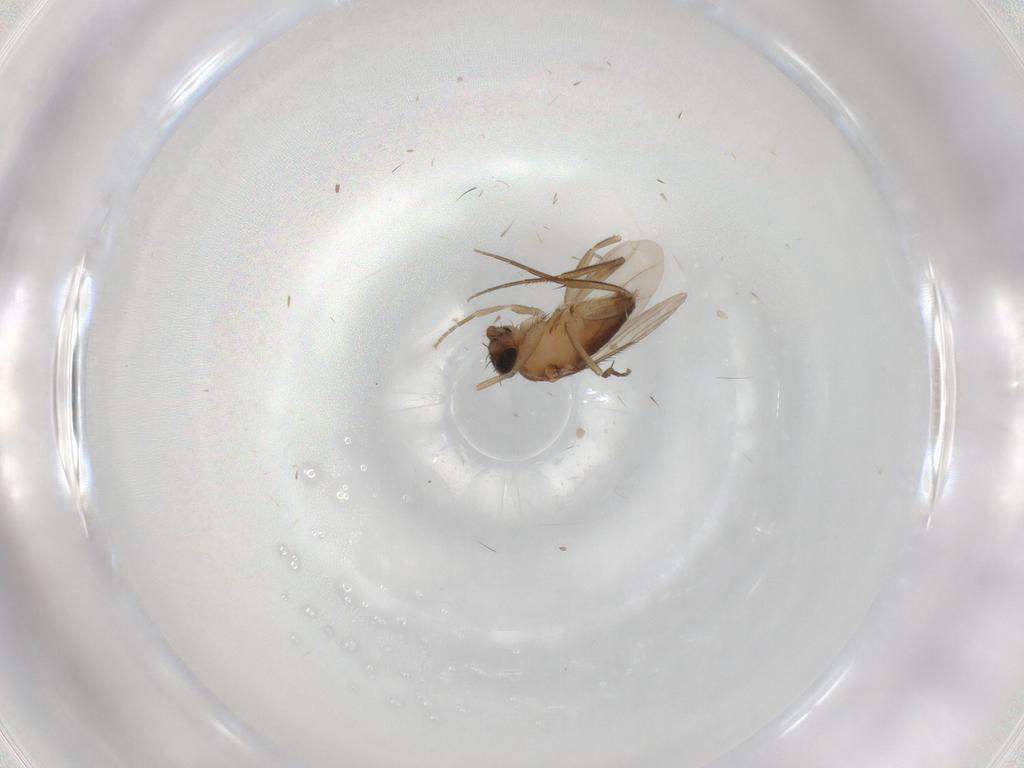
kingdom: Animalia
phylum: Arthropoda
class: Insecta
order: Diptera
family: Phoridae
